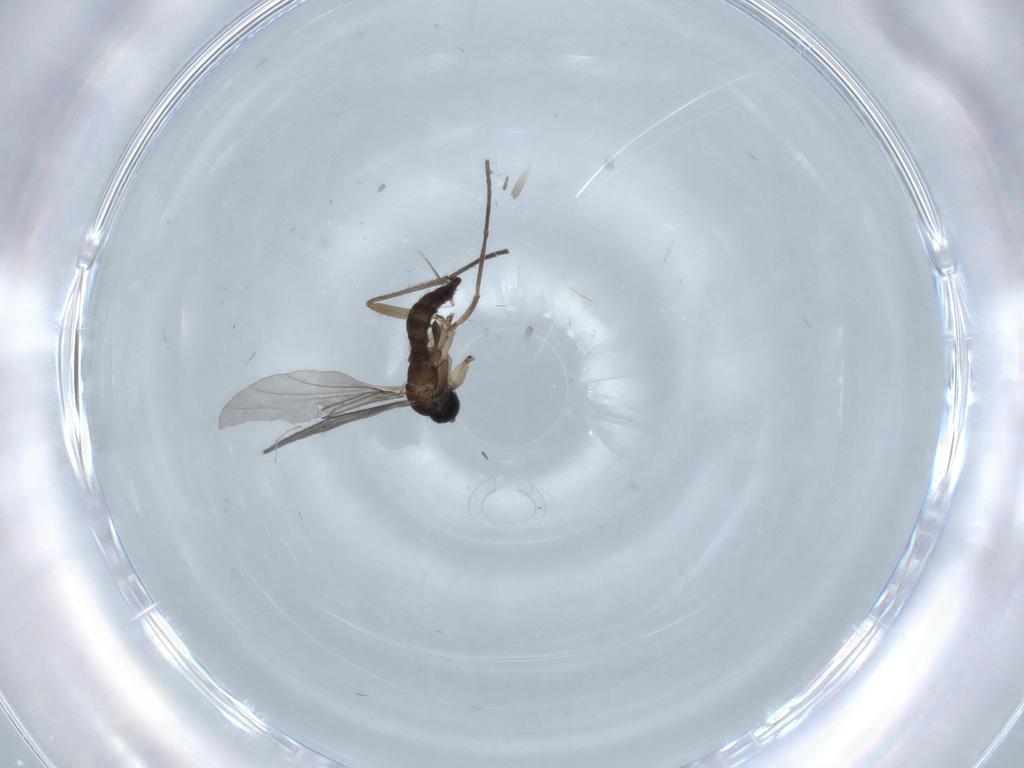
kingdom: Animalia
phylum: Arthropoda
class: Insecta
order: Diptera
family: Sciaridae
